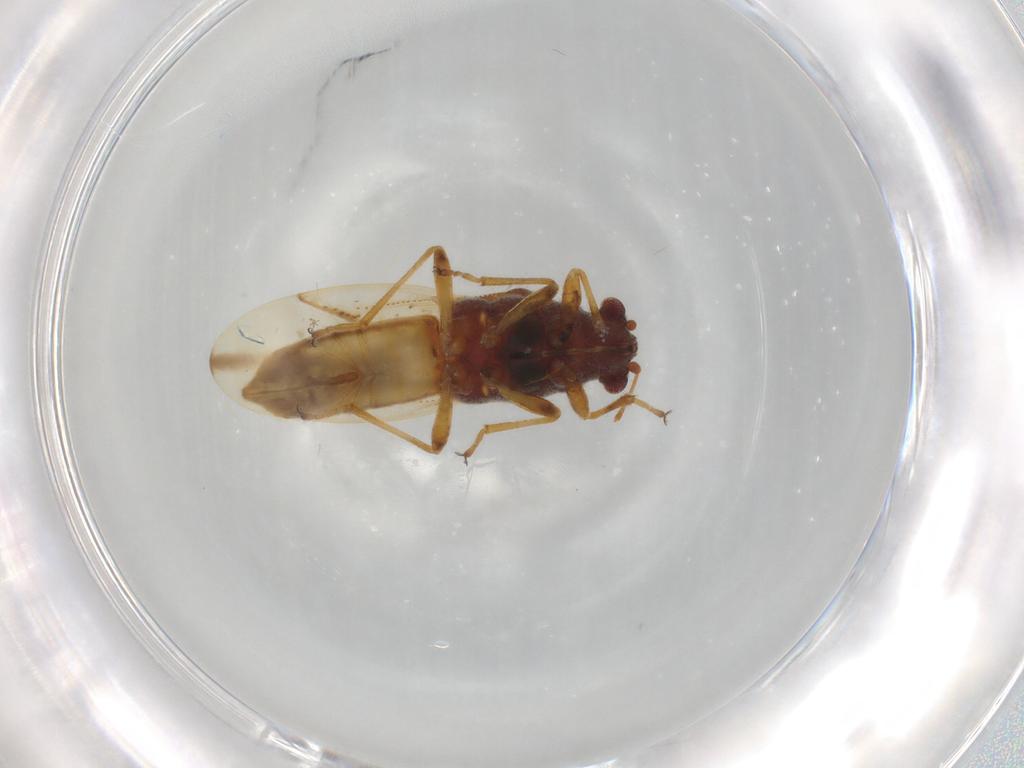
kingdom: Animalia
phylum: Arthropoda
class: Insecta
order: Hemiptera
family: Coreidae
